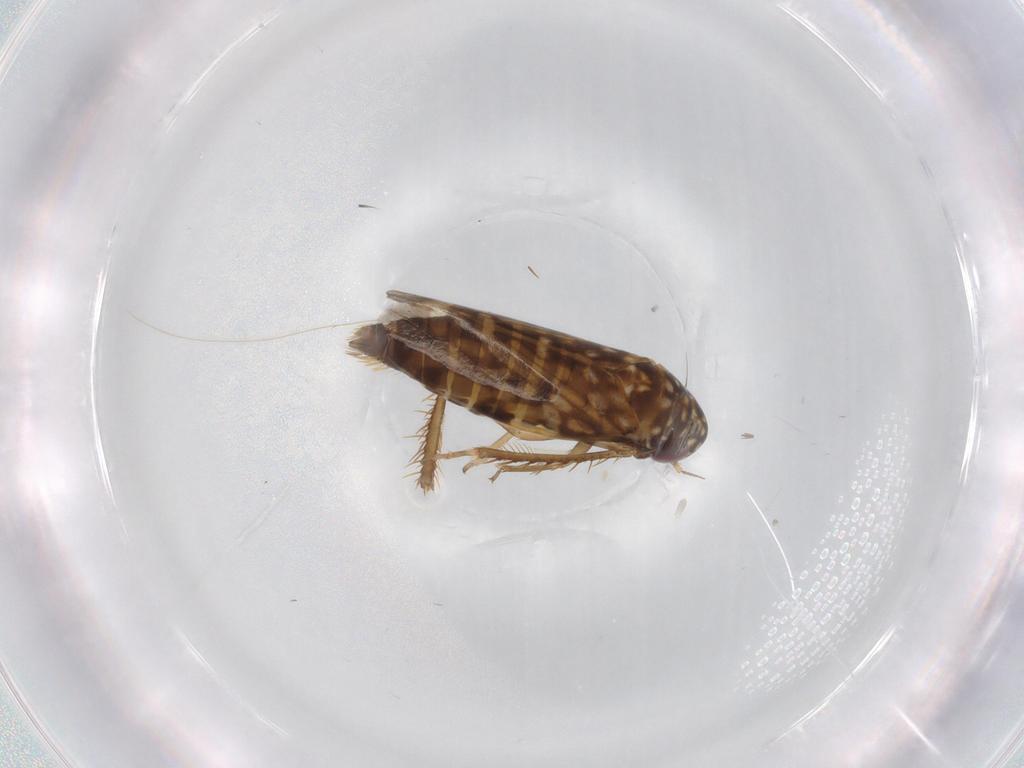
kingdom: Animalia
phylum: Arthropoda
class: Insecta
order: Hemiptera
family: Cicadellidae
